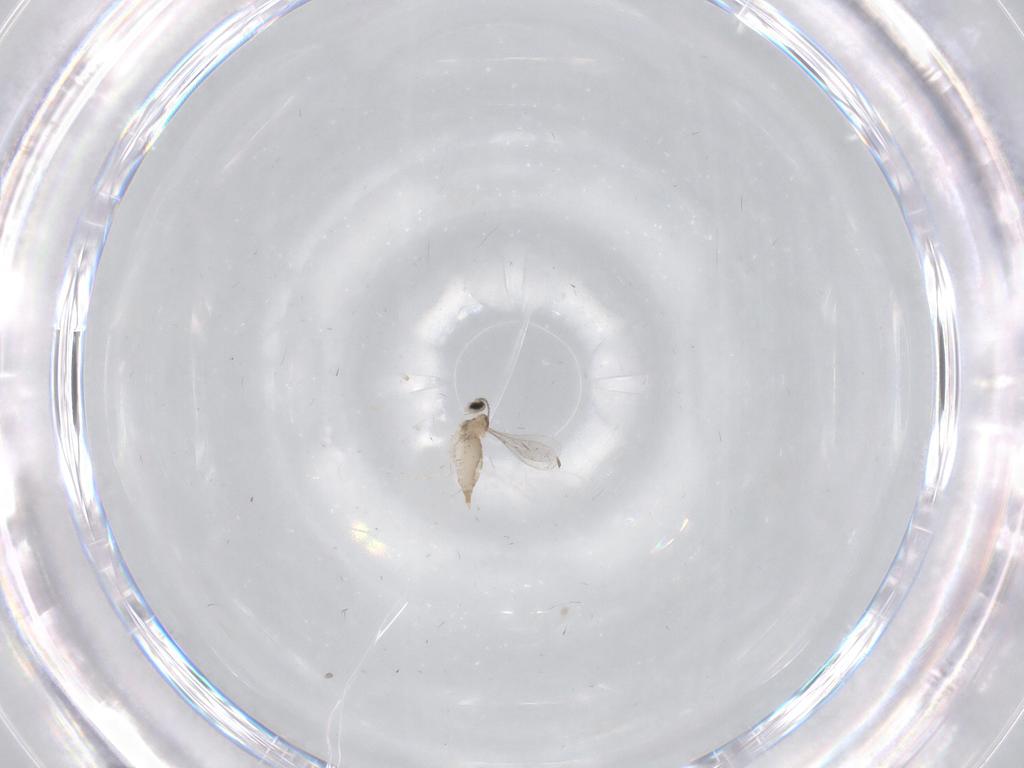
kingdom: Animalia
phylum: Arthropoda
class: Insecta
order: Diptera
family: Cecidomyiidae
